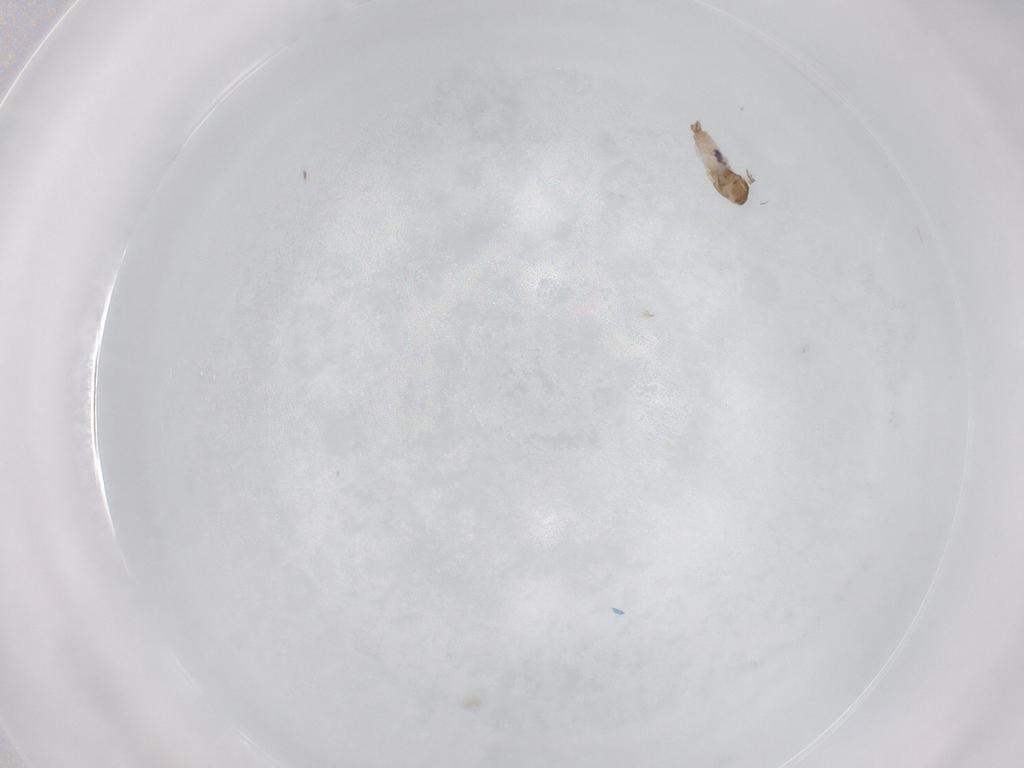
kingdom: Animalia
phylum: Arthropoda
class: Insecta
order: Diptera
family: Cecidomyiidae
